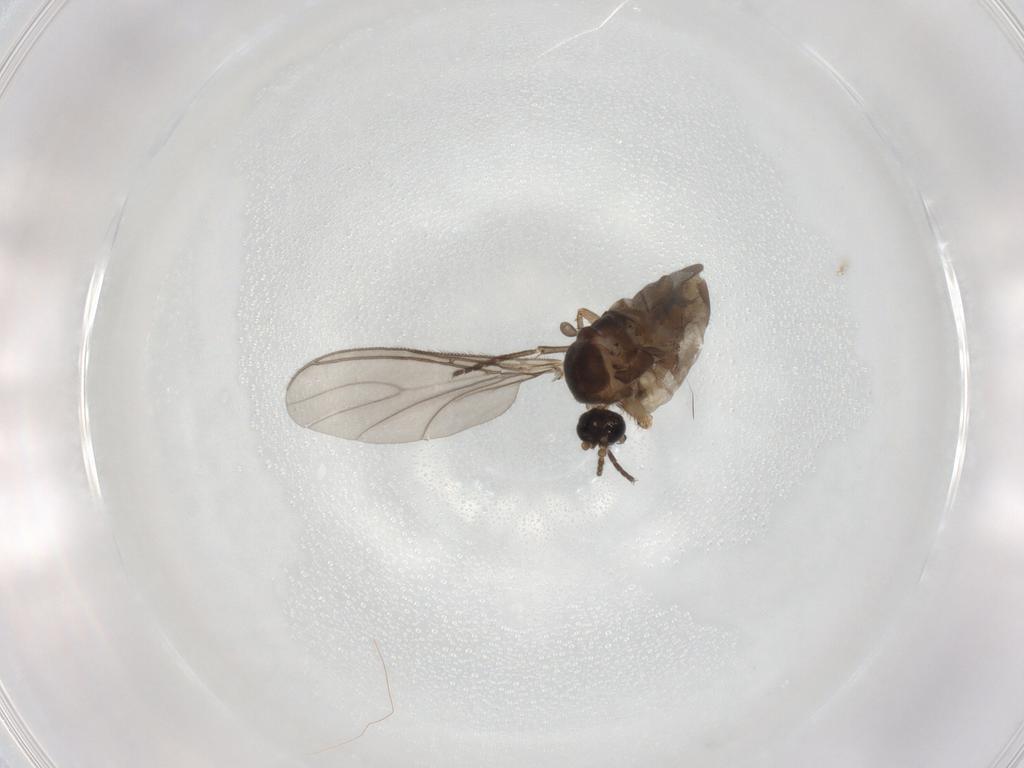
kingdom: Animalia
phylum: Arthropoda
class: Insecta
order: Diptera
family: Sciaridae
